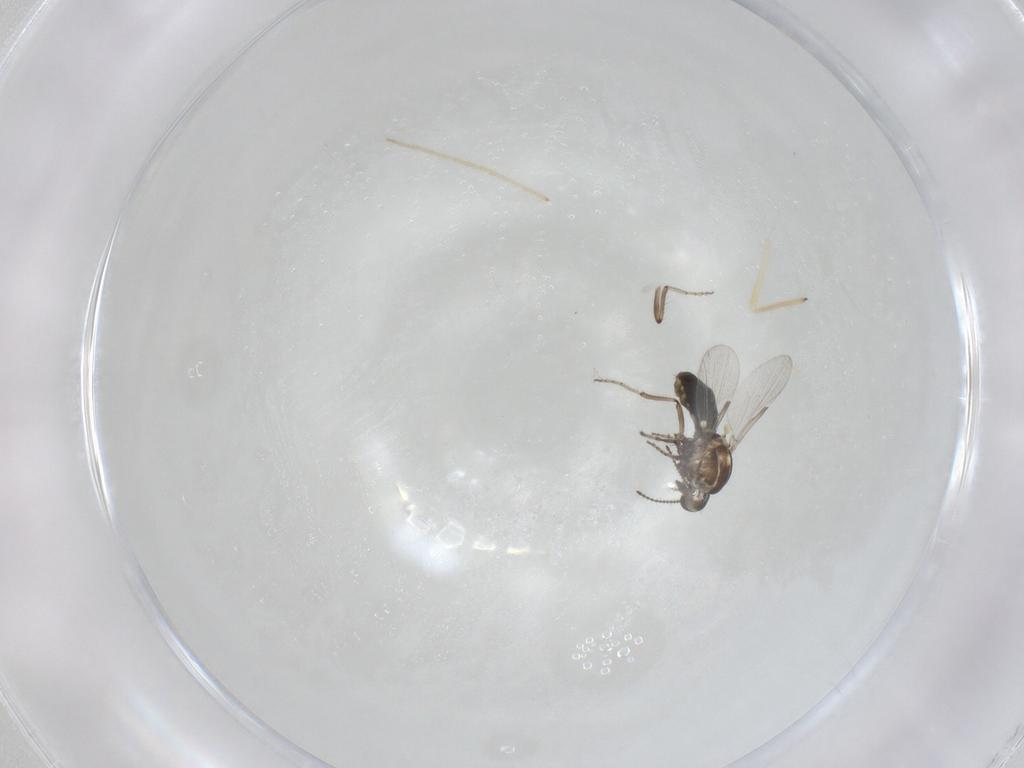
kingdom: Animalia
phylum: Arthropoda
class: Insecta
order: Diptera
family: Ceratopogonidae
